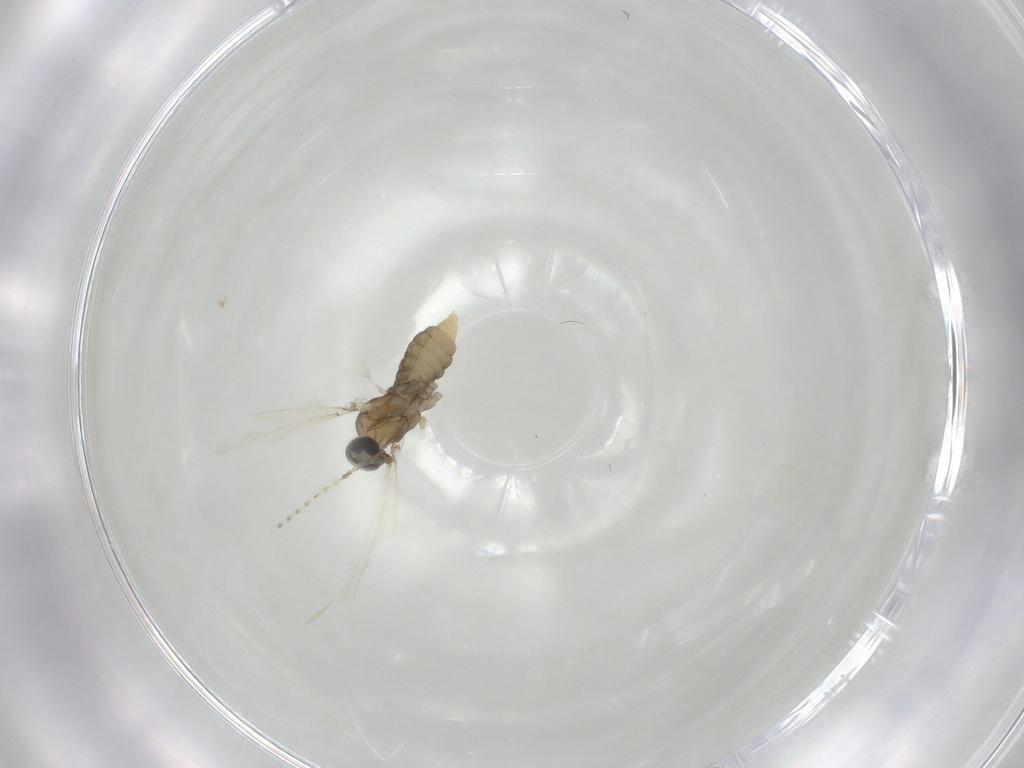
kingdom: Animalia
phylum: Arthropoda
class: Insecta
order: Diptera
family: Cecidomyiidae
